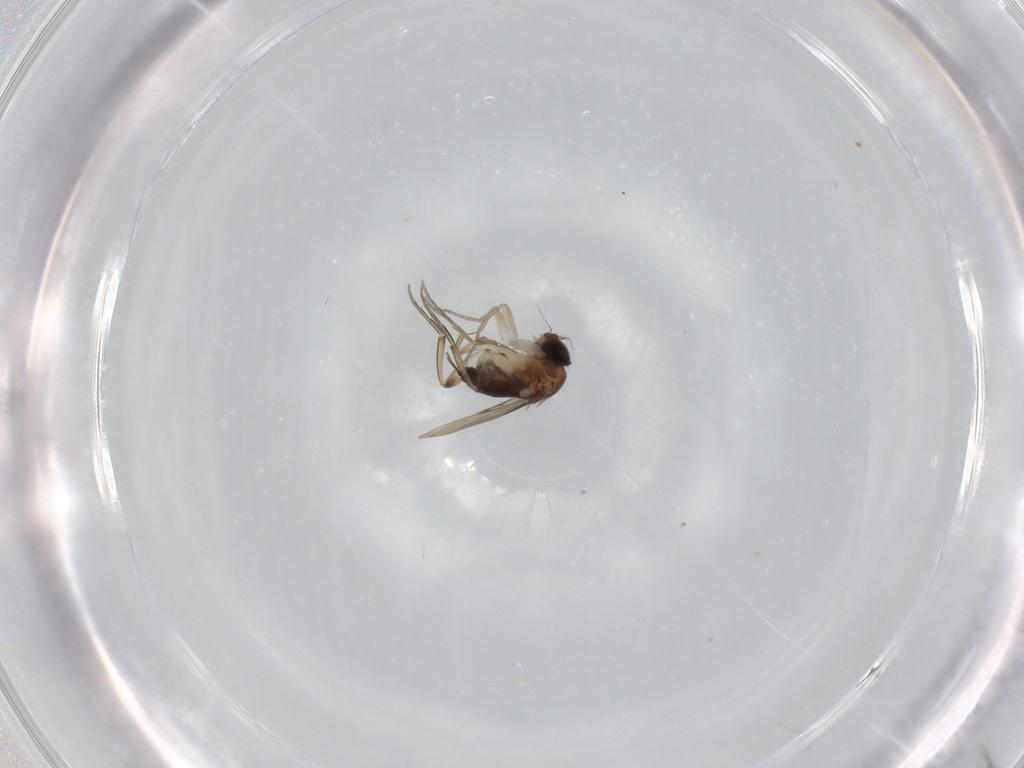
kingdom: Animalia
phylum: Arthropoda
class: Insecta
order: Diptera
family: Phoridae
